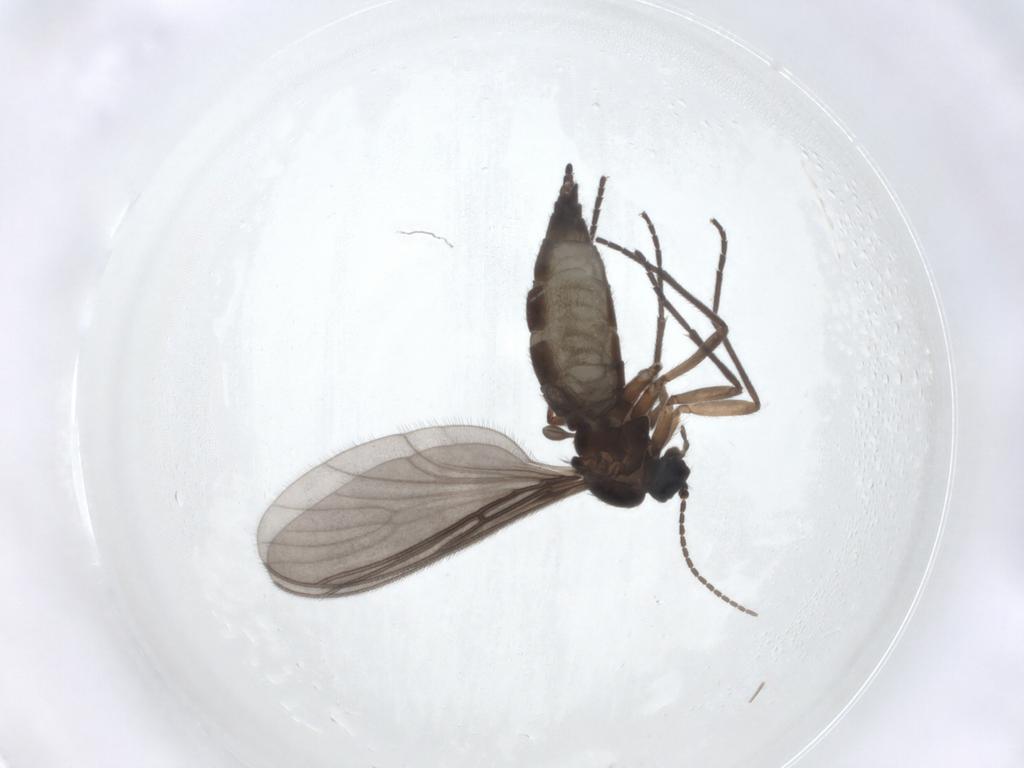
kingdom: Animalia
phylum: Arthropoda
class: Insecta
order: Diptera
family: Sciaridae
